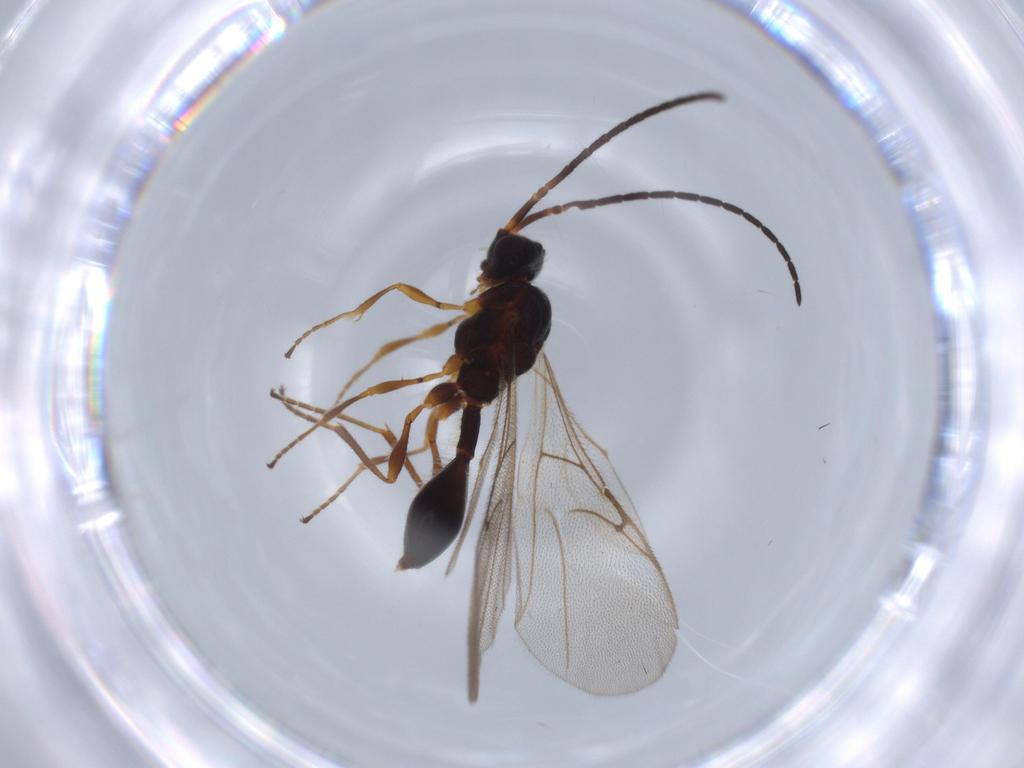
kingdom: Animalia
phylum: Arthropoda
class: Insecta
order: Hymenoptera
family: Diapriidae
